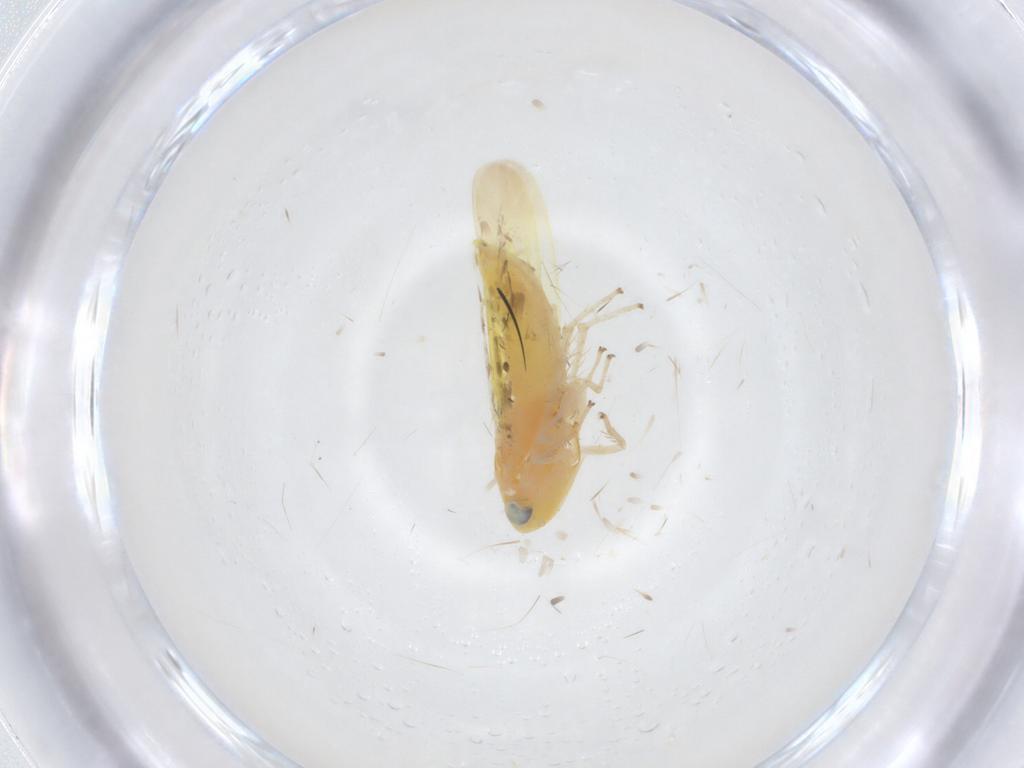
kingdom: Animalia
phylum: Arthropoda
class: Insecta
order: Hemiptera
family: Cicadellidae
